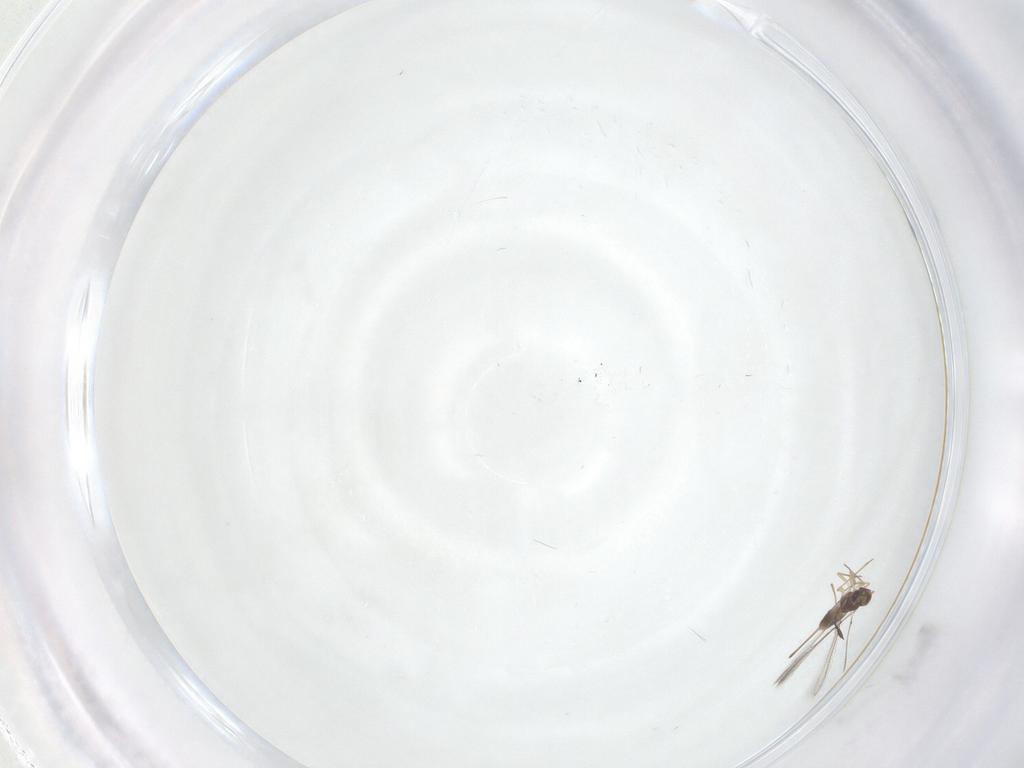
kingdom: Animalia
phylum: Arthropoda
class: Insecta
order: Hymenoptera
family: Mymaridae
